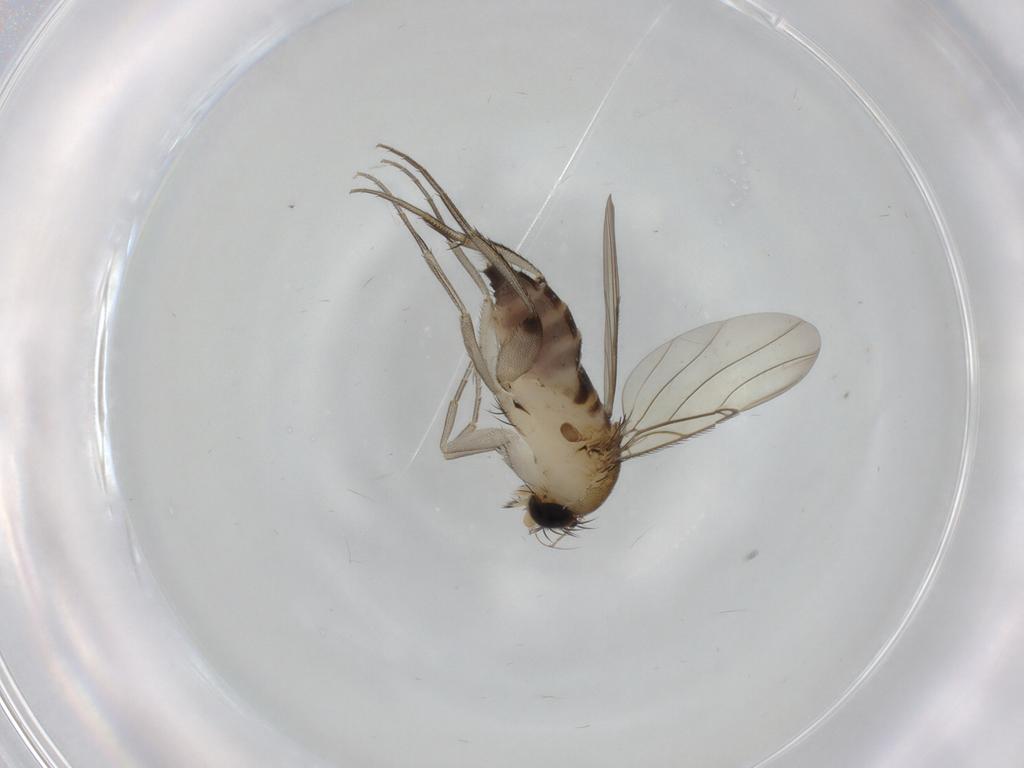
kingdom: Animalia
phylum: Arthropoda
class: Insecta
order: Diptera
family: Phoridae
